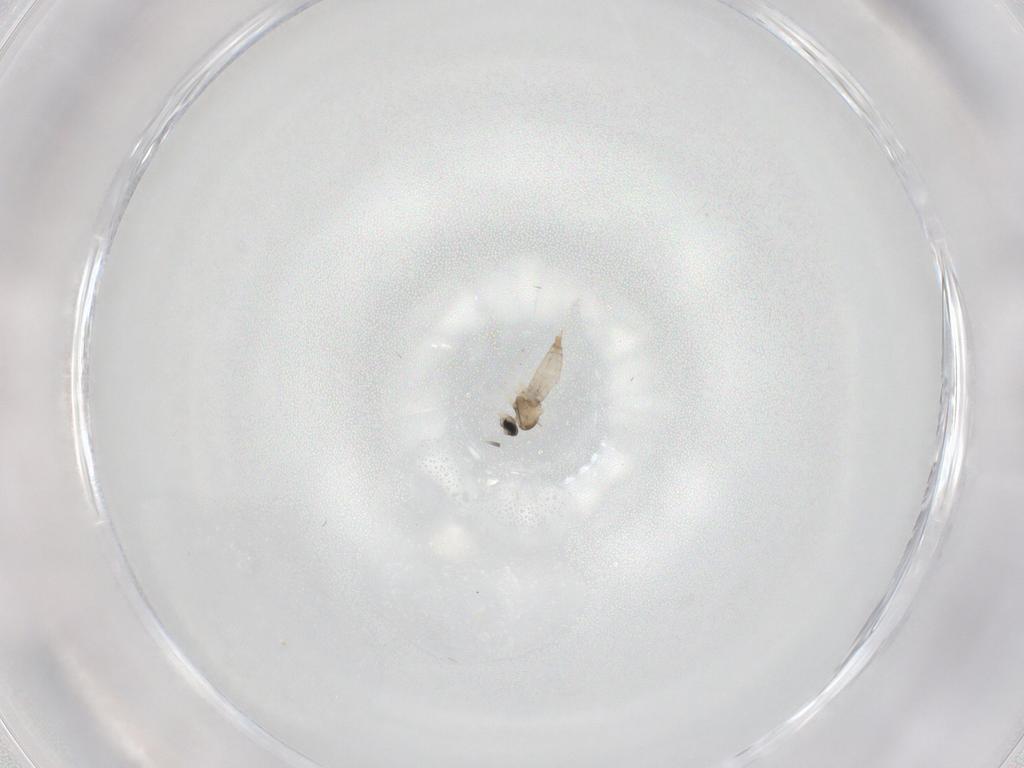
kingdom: Animalia
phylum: Arthropoda
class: Insecta
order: Diptera
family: Cecidomyiidae
